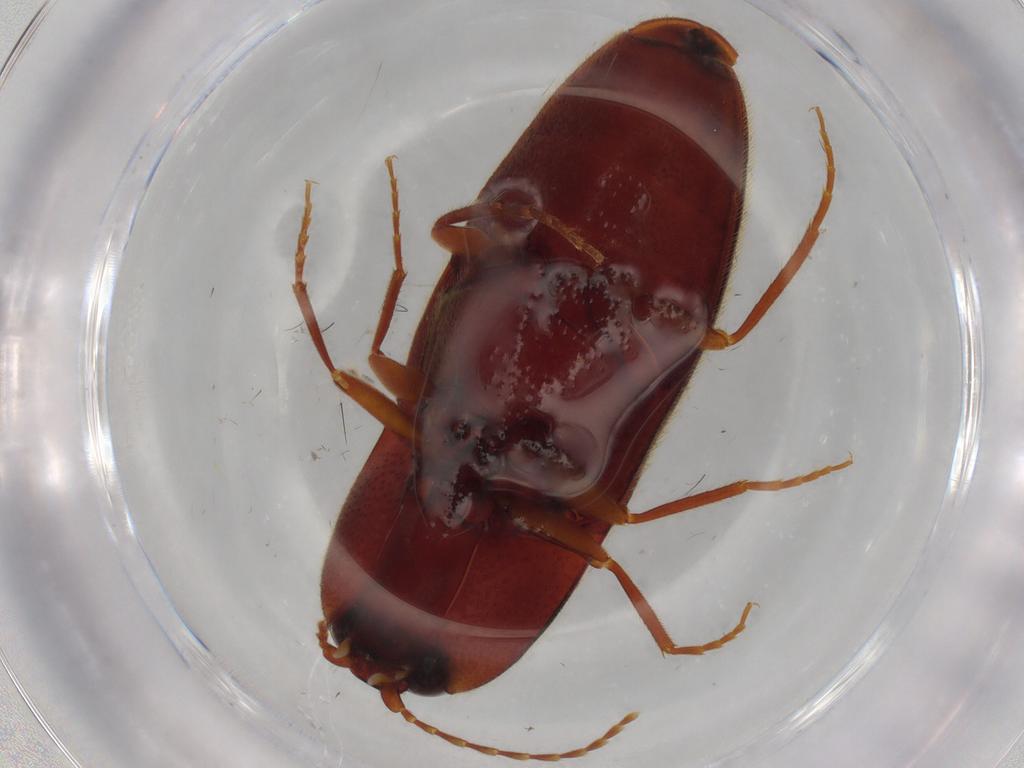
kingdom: Animalia
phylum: Arthropoda
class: Insecta
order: Coleoptera
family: Elateridae
